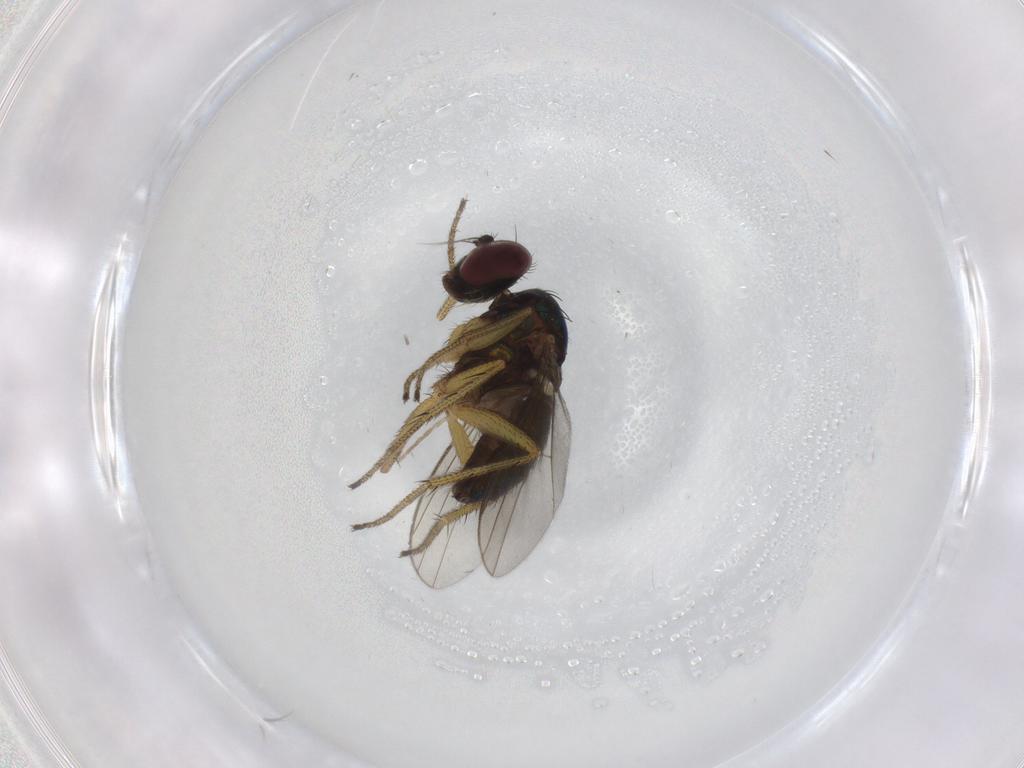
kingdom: Animalia
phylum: Arthropoda
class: Insecta
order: Diptera
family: Dolichopodidae
